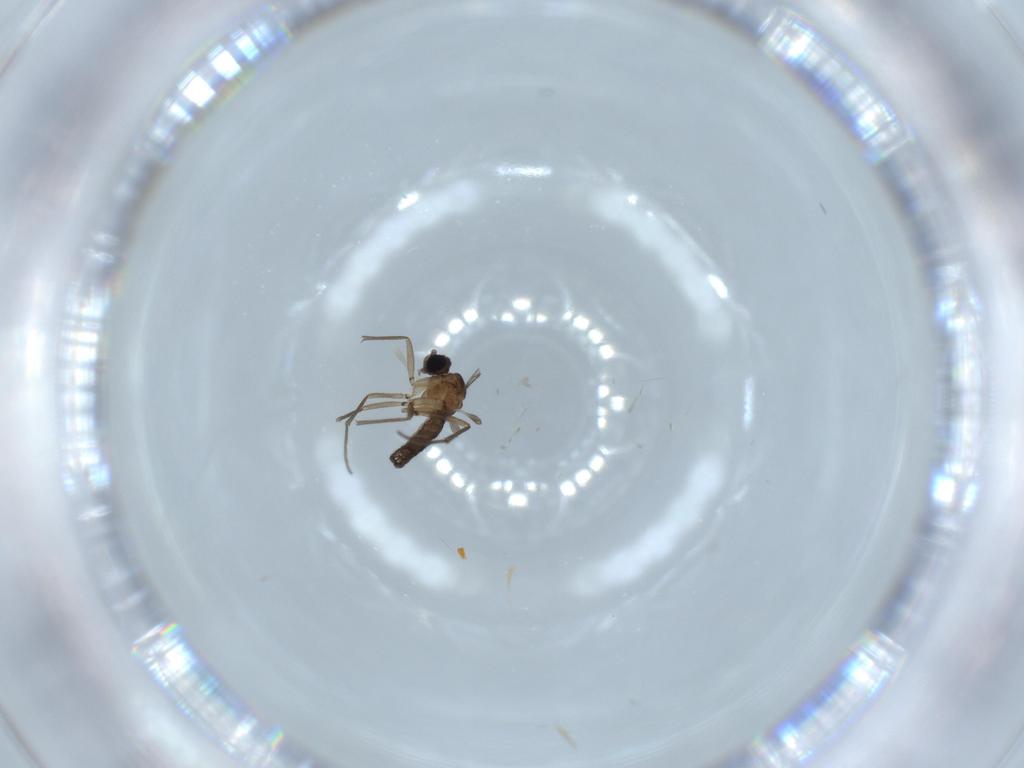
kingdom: Animalia
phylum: Arthropoda
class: Insecta
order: Diptera
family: Sciaridae
